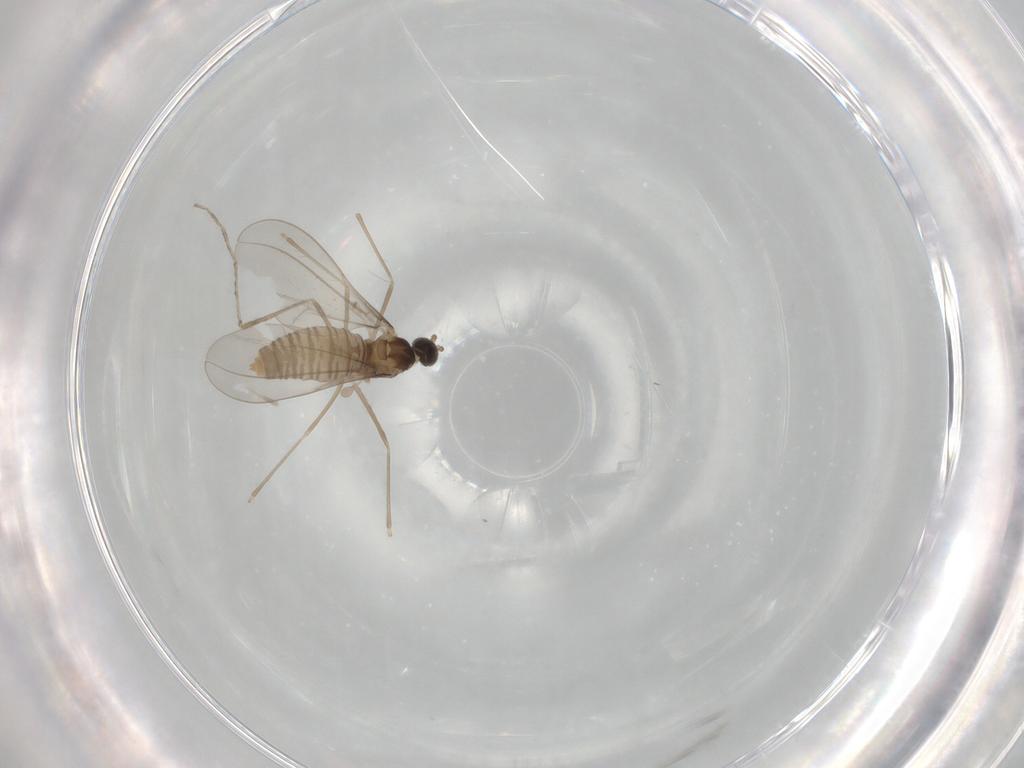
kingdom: Animalia
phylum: Arthropoda
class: Insecta
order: Diptera
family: Cecidomyiidae
